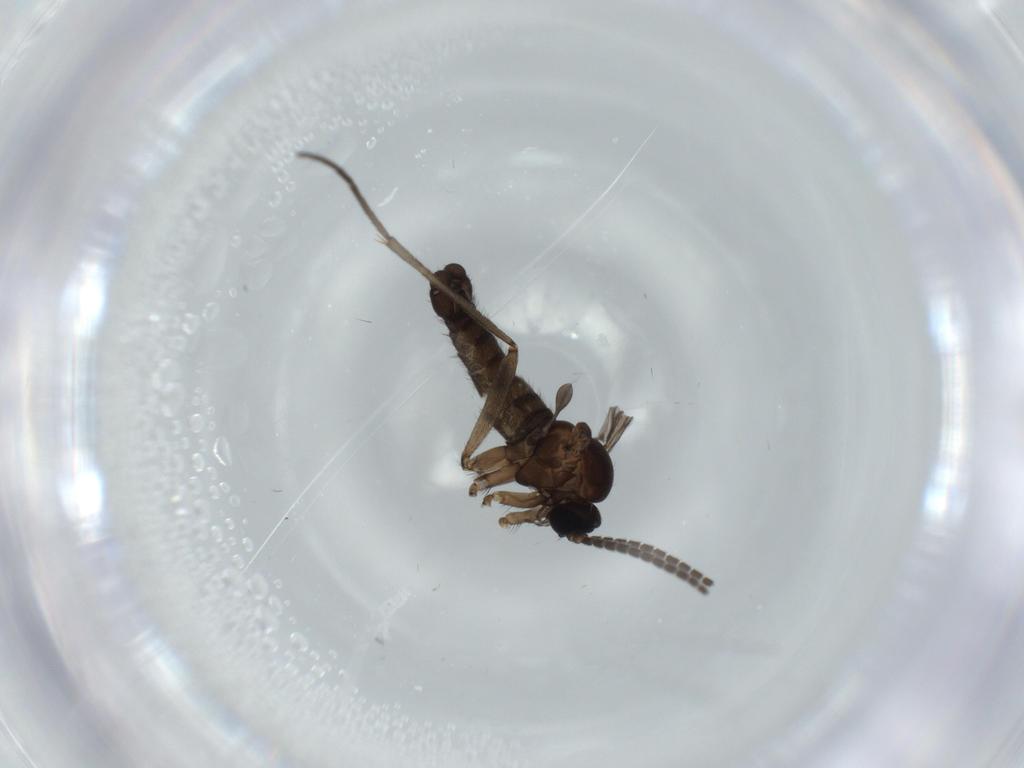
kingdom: Animalia
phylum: Arthropoda
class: Insecta
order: Diptera
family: Sciaridae
